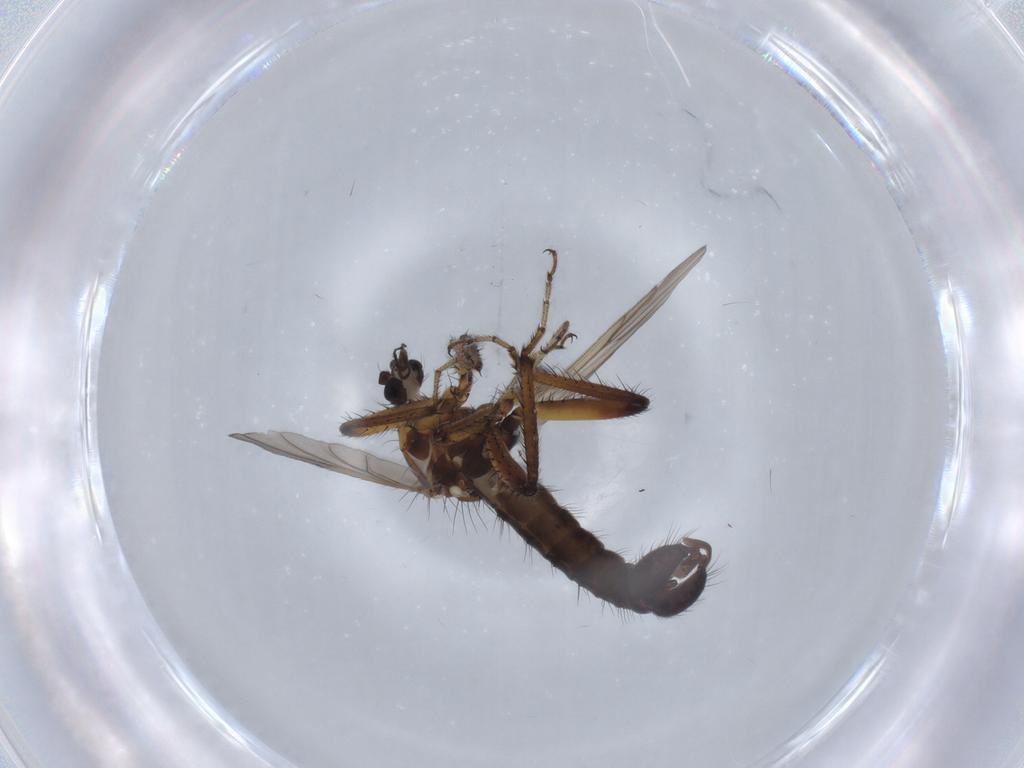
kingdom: Animalia
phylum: Arthropoda
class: Insecta
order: Diptera
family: Ceratopogonidae
